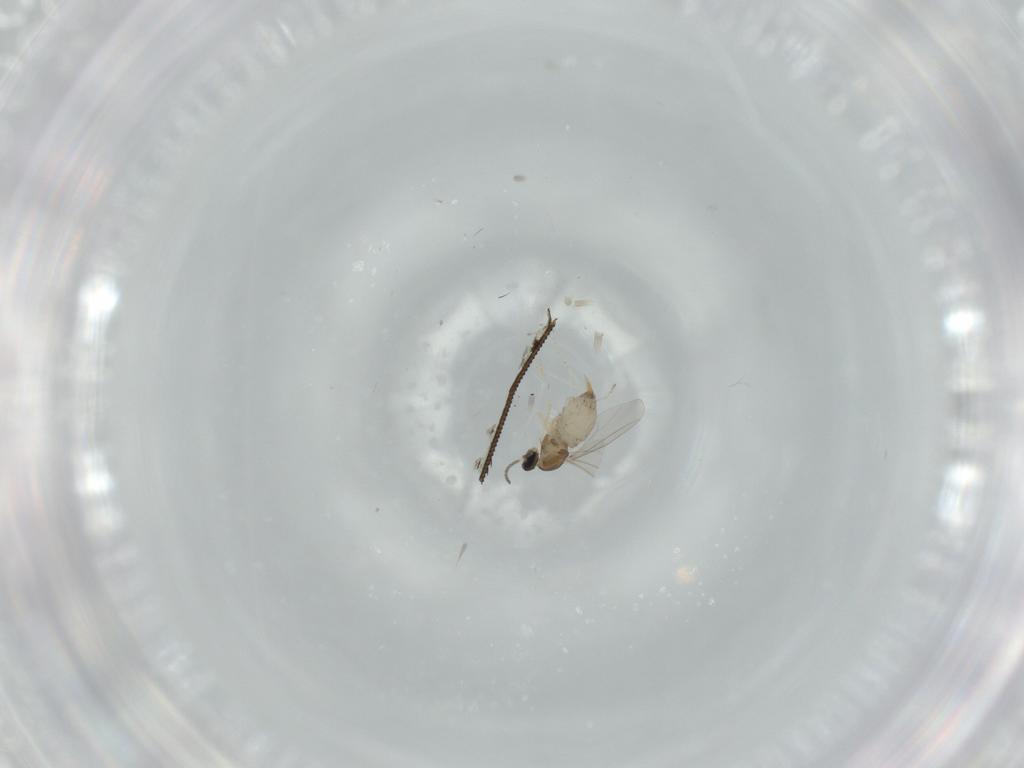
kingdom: Animalia
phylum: Arthropoda
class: Insecta
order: Diptera
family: Cecidomyiidae
